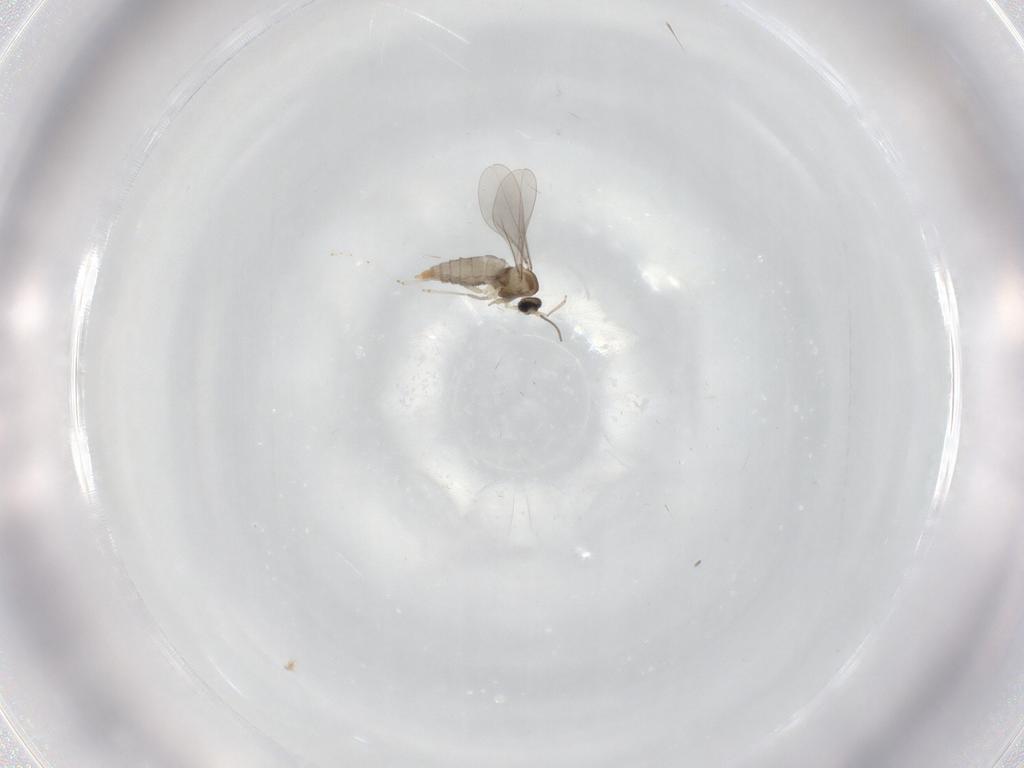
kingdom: Animalia
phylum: Arthropoda
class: Insecta
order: Diptera
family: Cecidomyiidae
